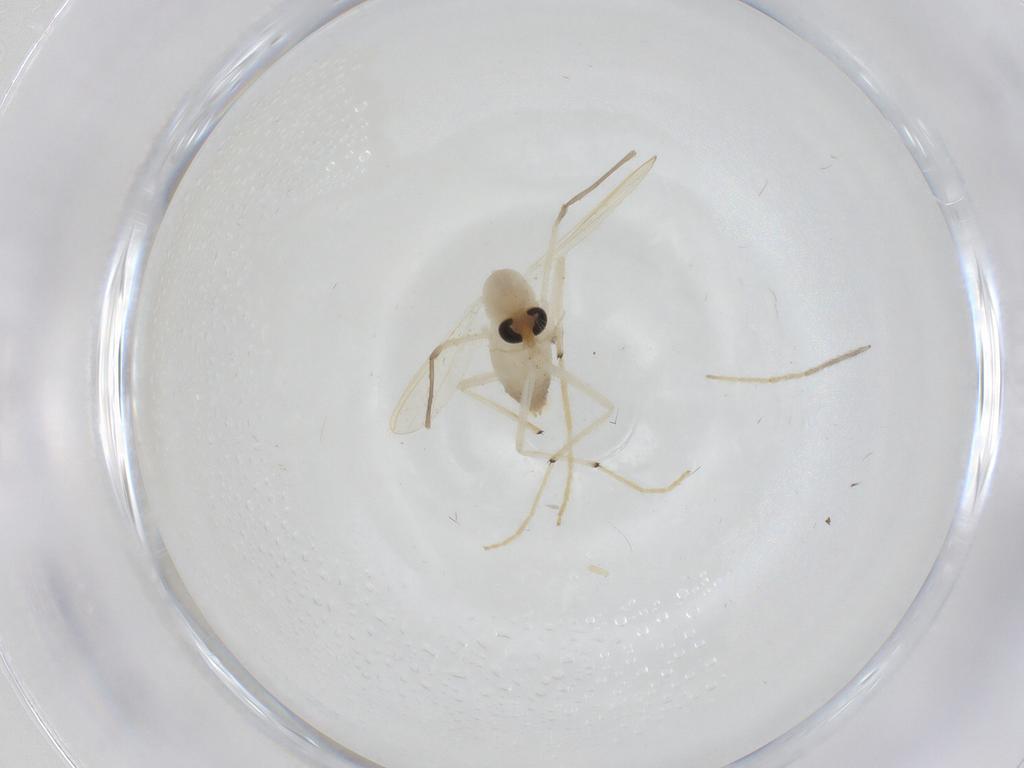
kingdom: Animalia
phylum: Arthropoda
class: Insecta
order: Diptera
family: Chironomidae
